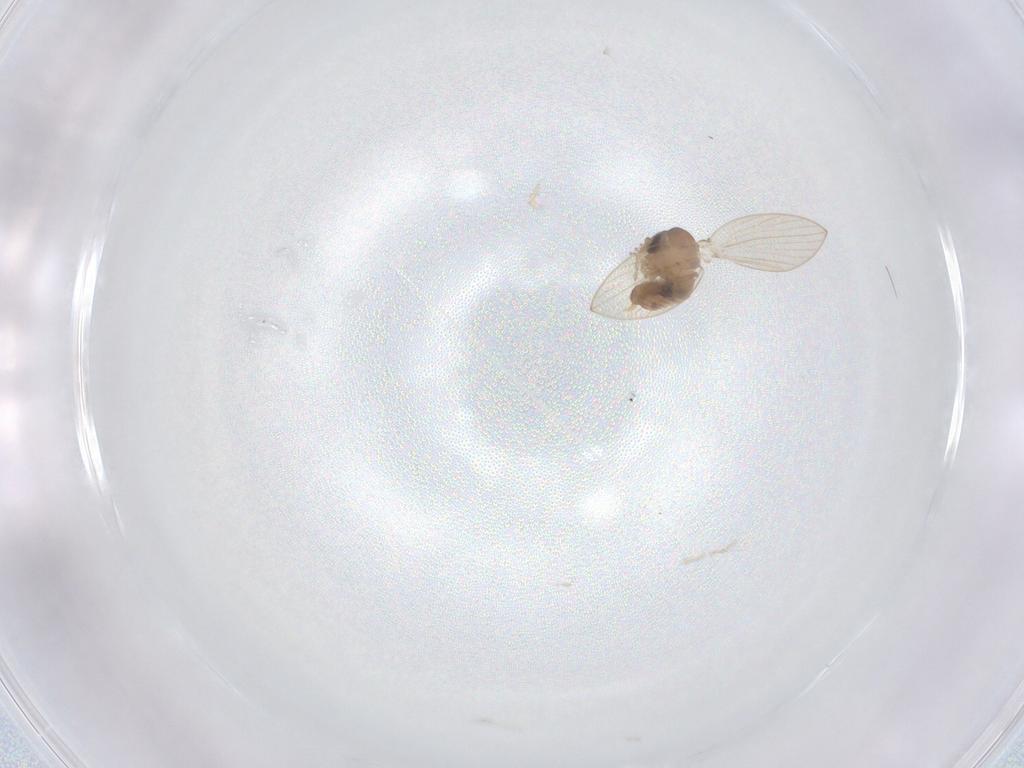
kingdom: Animalia
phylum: Arthropoda
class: Insecta
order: Diptera
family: Psychodidae
